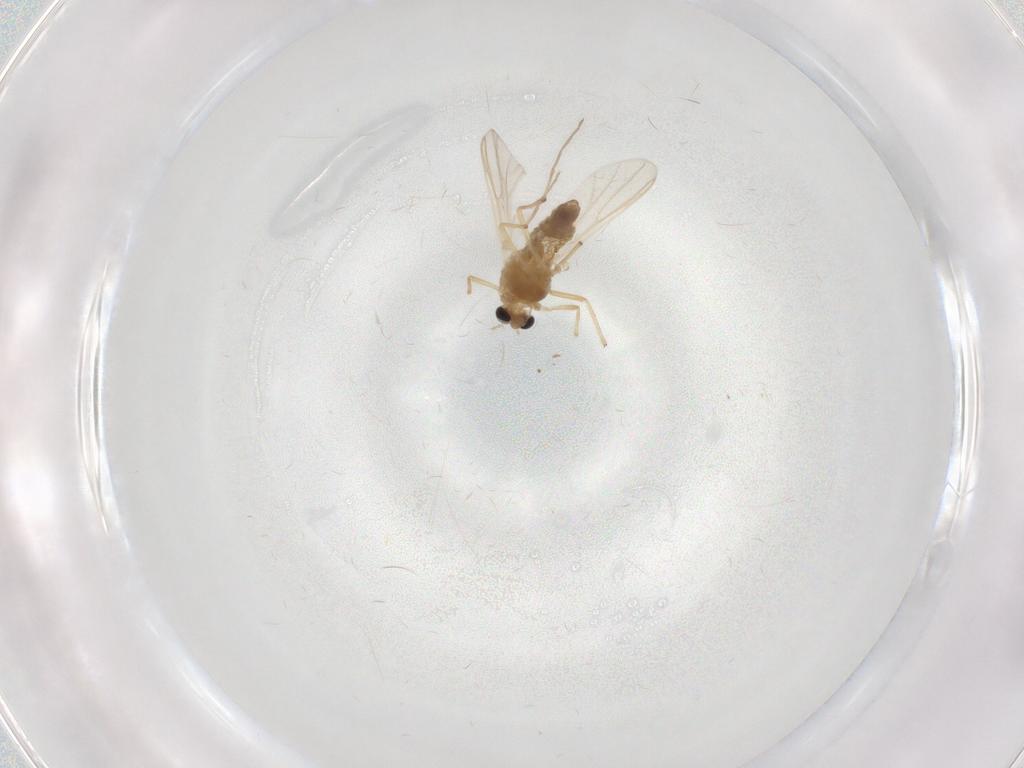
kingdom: Animalia
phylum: Arthropoda
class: Insecta
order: Diptera
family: Chironomidae
